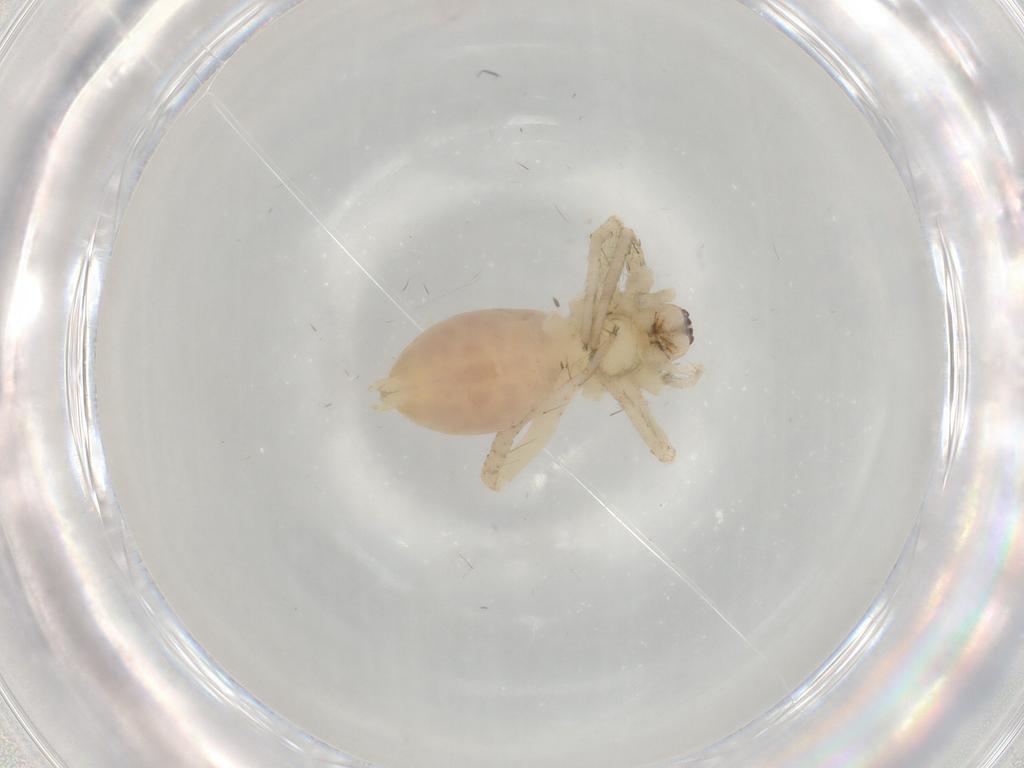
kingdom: Animalia
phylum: Arthropoda
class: Arachnida
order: Araneae
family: Anyphaenidae
